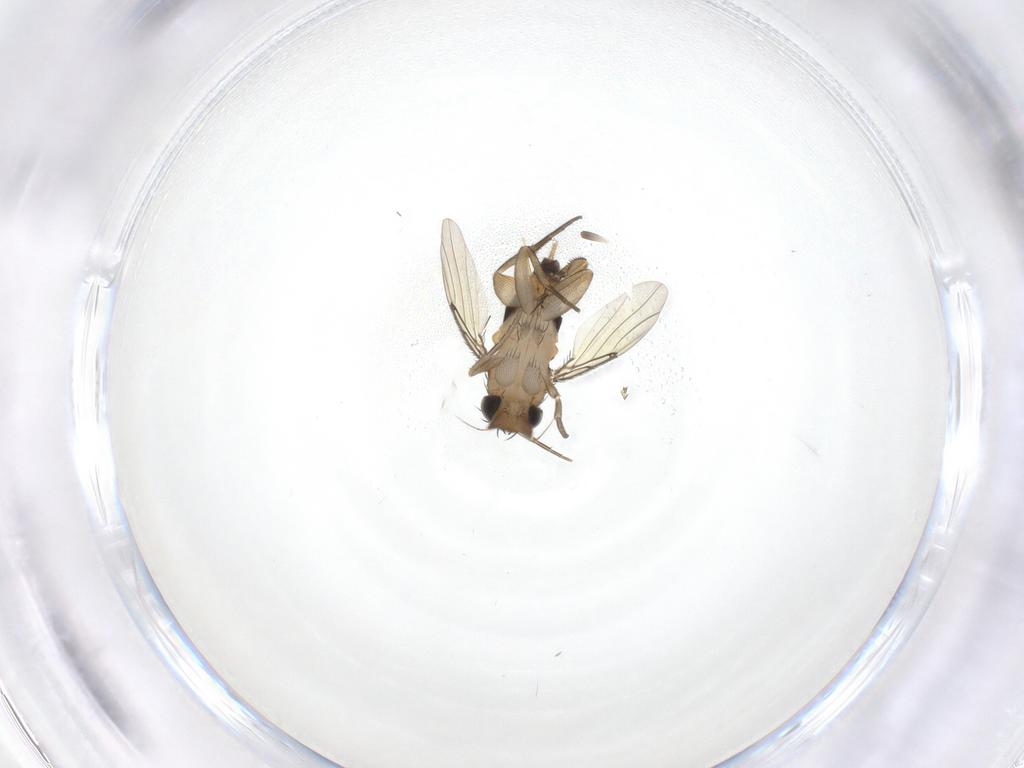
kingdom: Animalia
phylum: Arthropoda
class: Insecta
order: Diptera
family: Phoridae
